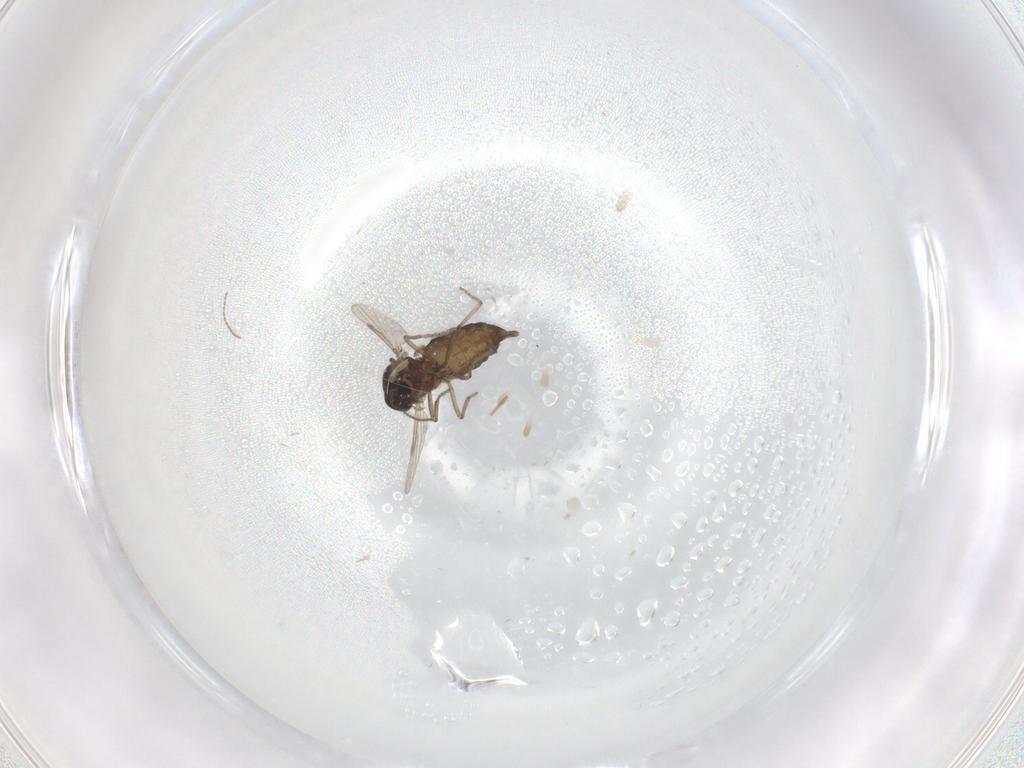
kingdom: Animalia
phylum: Arthropoda
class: Insecta
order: Diptera
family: Ceratopogonidae
